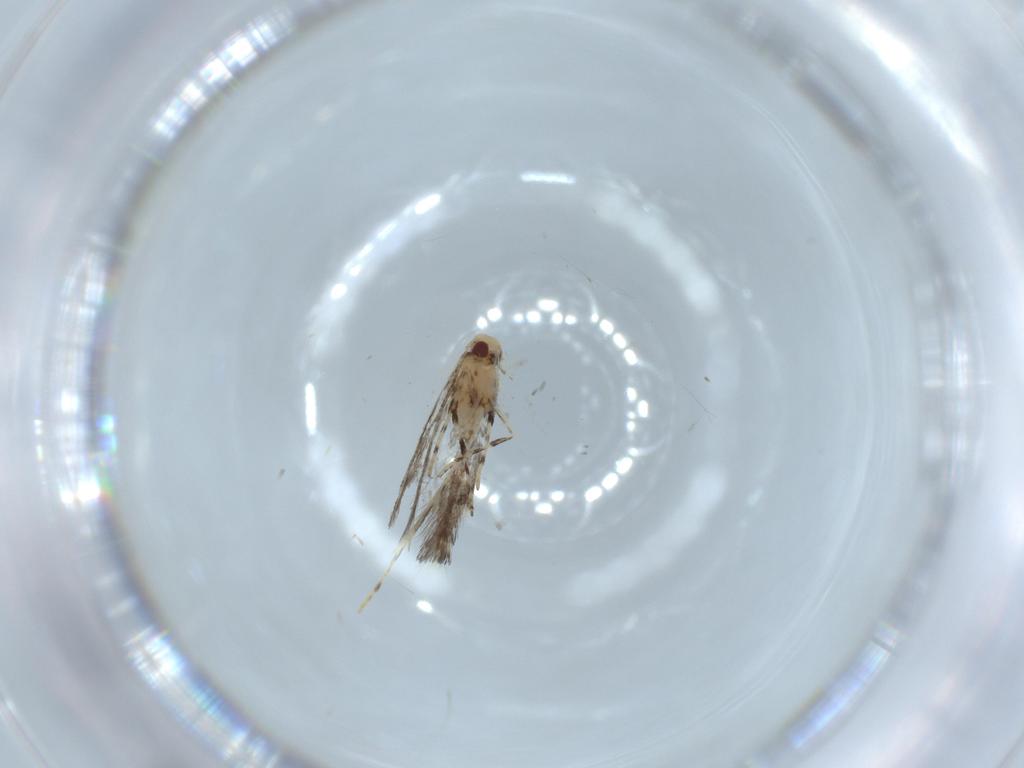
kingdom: Animalia
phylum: Arthropoda
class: Insecta
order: Lepidoptera
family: Gracillariidae
